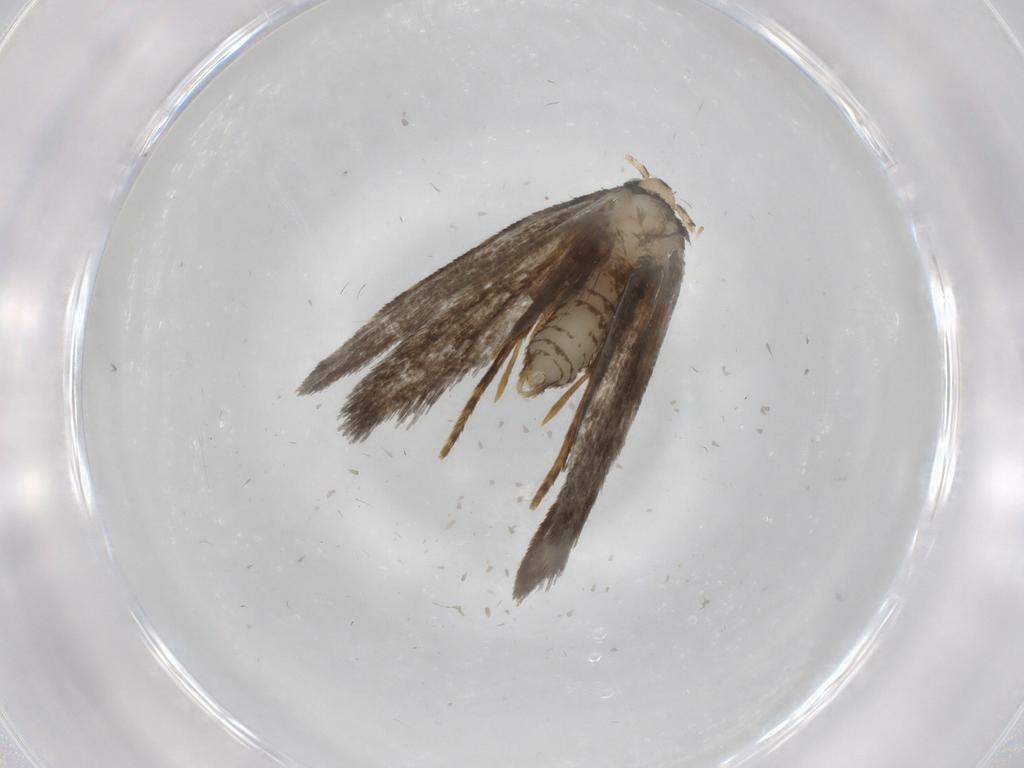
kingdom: Animalia
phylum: Arthropoda
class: Insecta
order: Lepidoptera
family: Psychidae
